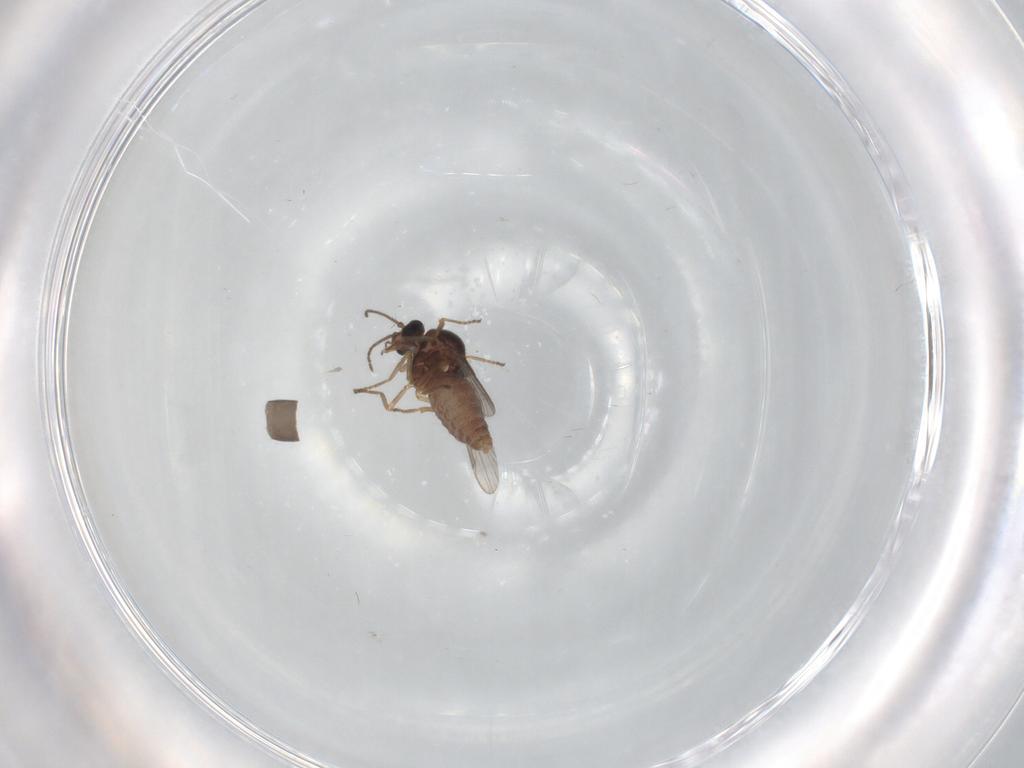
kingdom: Animalia
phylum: Arthropoda
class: Insecta
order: Diptera
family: Ceratopogonidae
